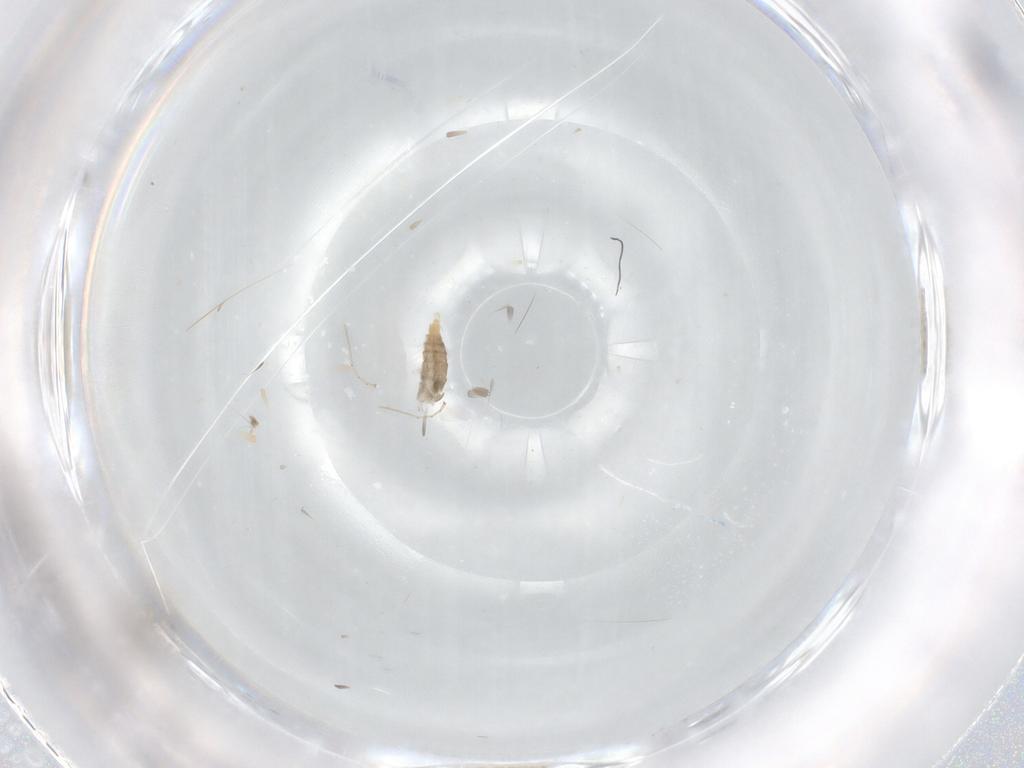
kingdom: Animalia
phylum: Arthropoda
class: Insecta
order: Diptera
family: Cecidomyiidae
